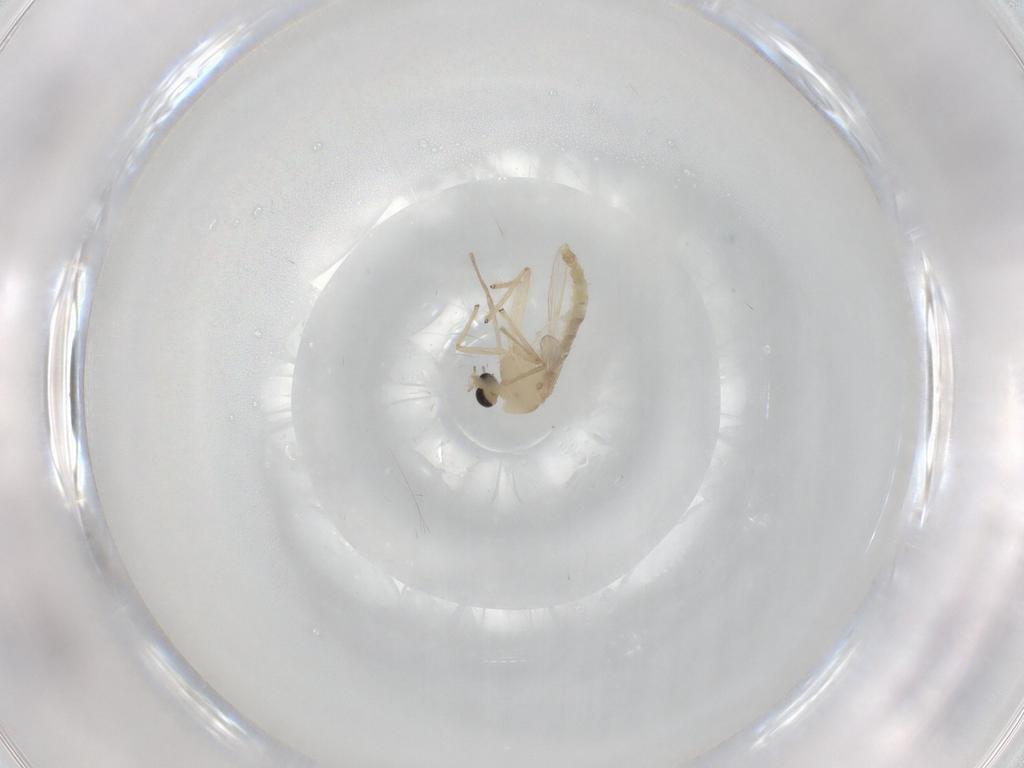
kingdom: Animalia
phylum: Arthropoda
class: Insecta
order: Diptera
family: Chironomidae
